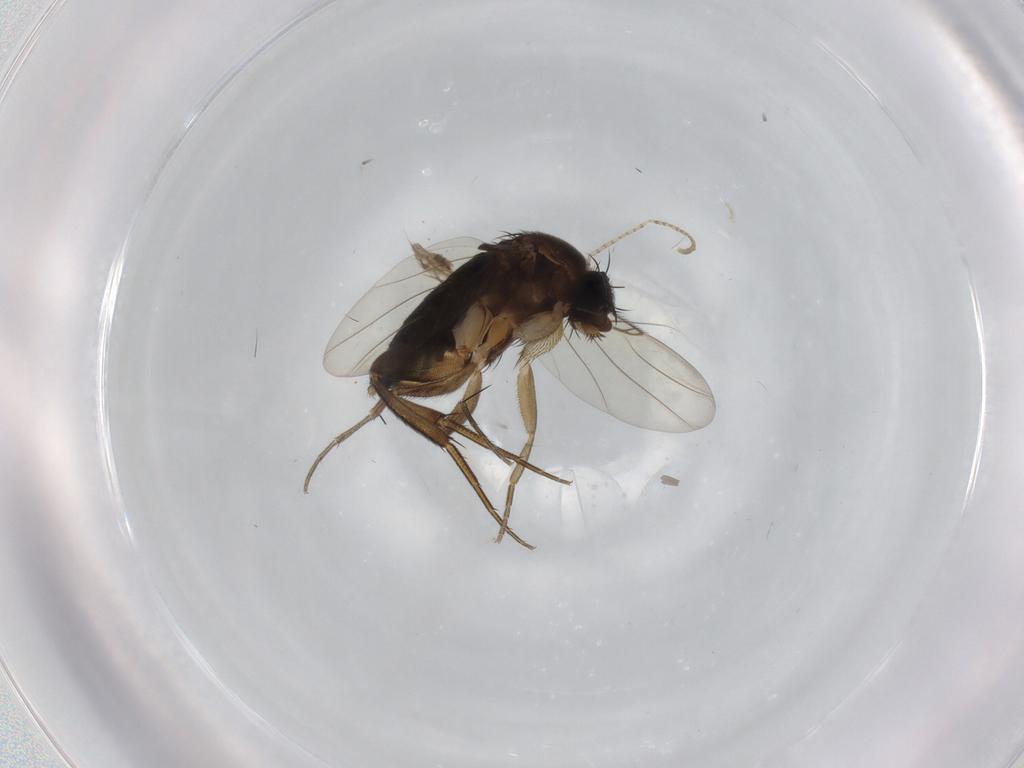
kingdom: Animalia
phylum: Arthropoda
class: Insecta
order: Diptera
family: Phoridae
